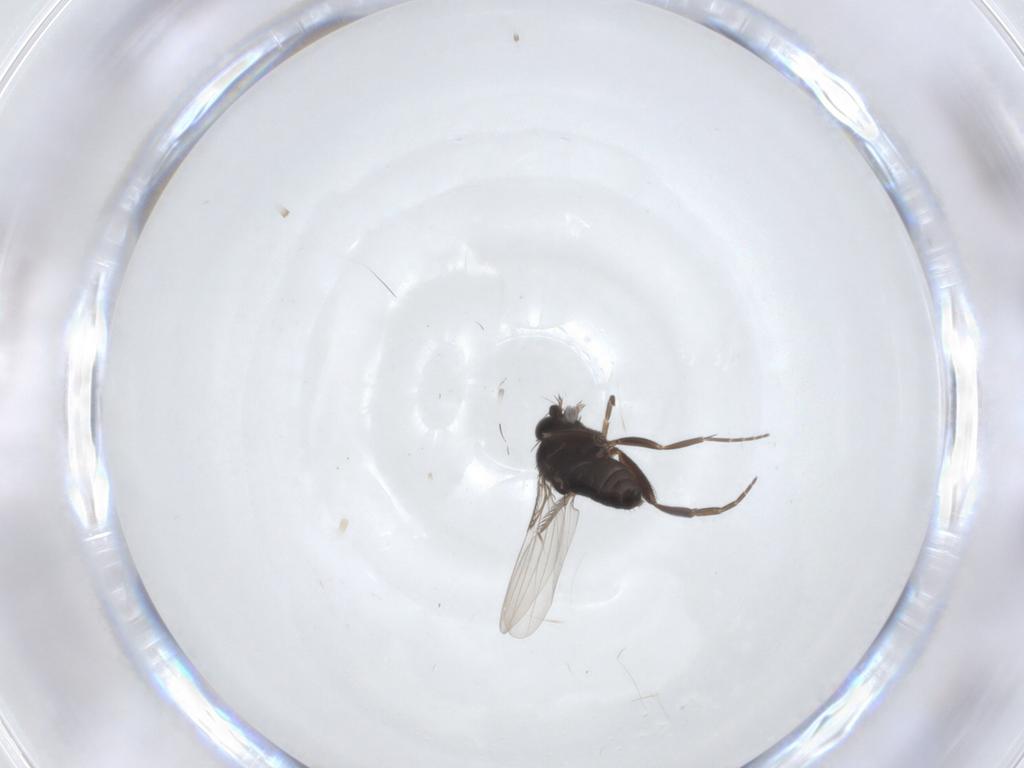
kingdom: Animalia
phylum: Arthropoda
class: Insecta
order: Diptera
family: Phoridae
